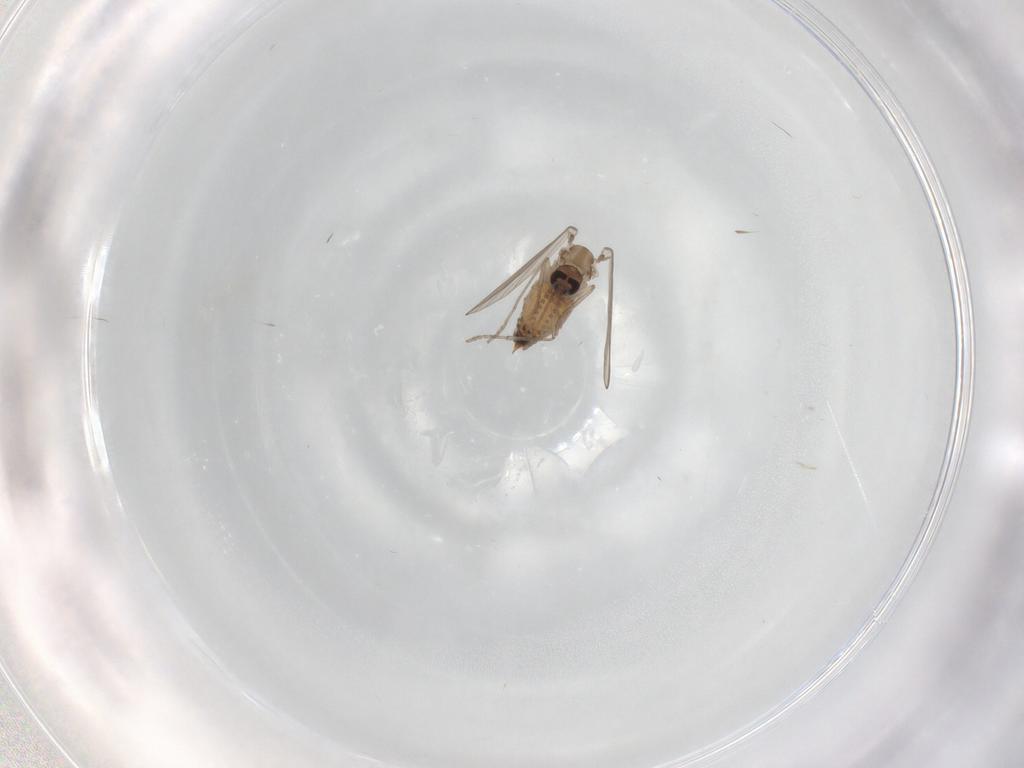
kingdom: Animalia
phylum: Arthropoda
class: Insecta
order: Diptera
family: Psychodidae
